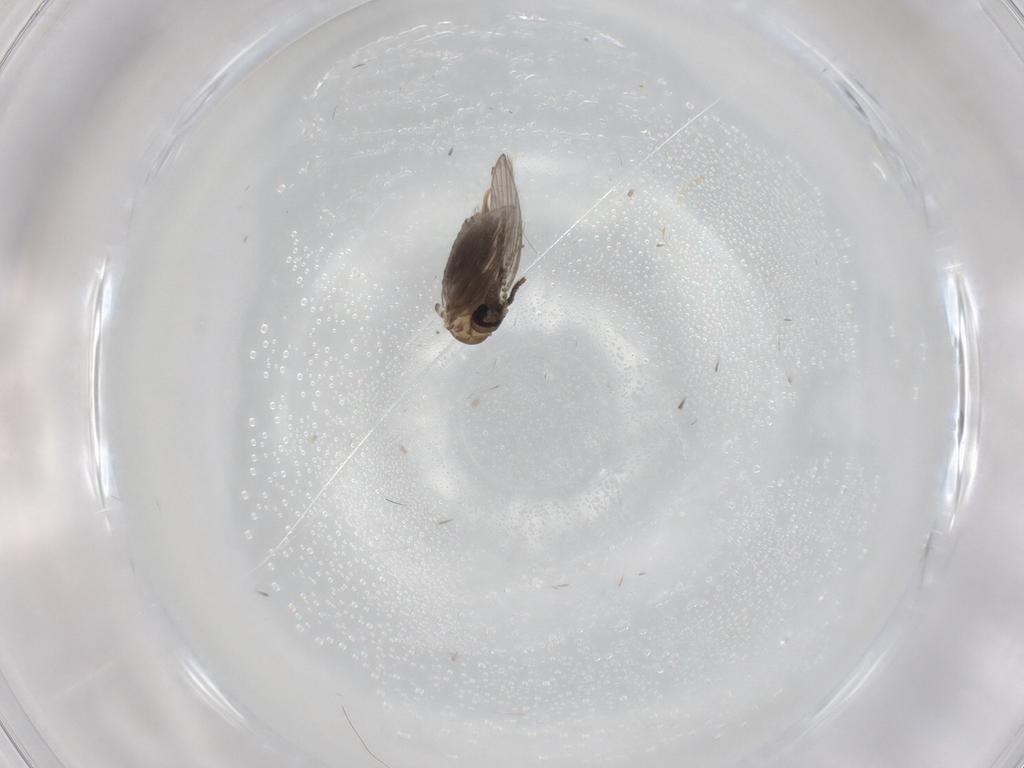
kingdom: Animalia
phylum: Arthropoda
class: Insecta
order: Diptera
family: Psychodidae
